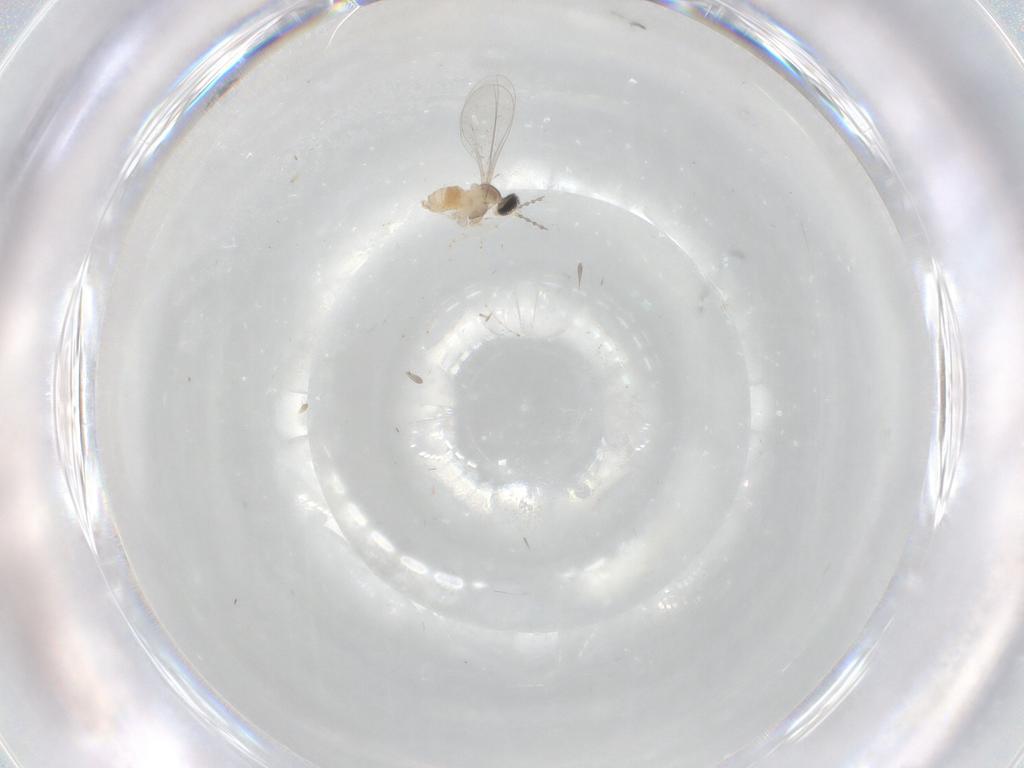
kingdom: Animalia
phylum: Arthropoda
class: Insecta
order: Diptera
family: Cecidomyiidae
